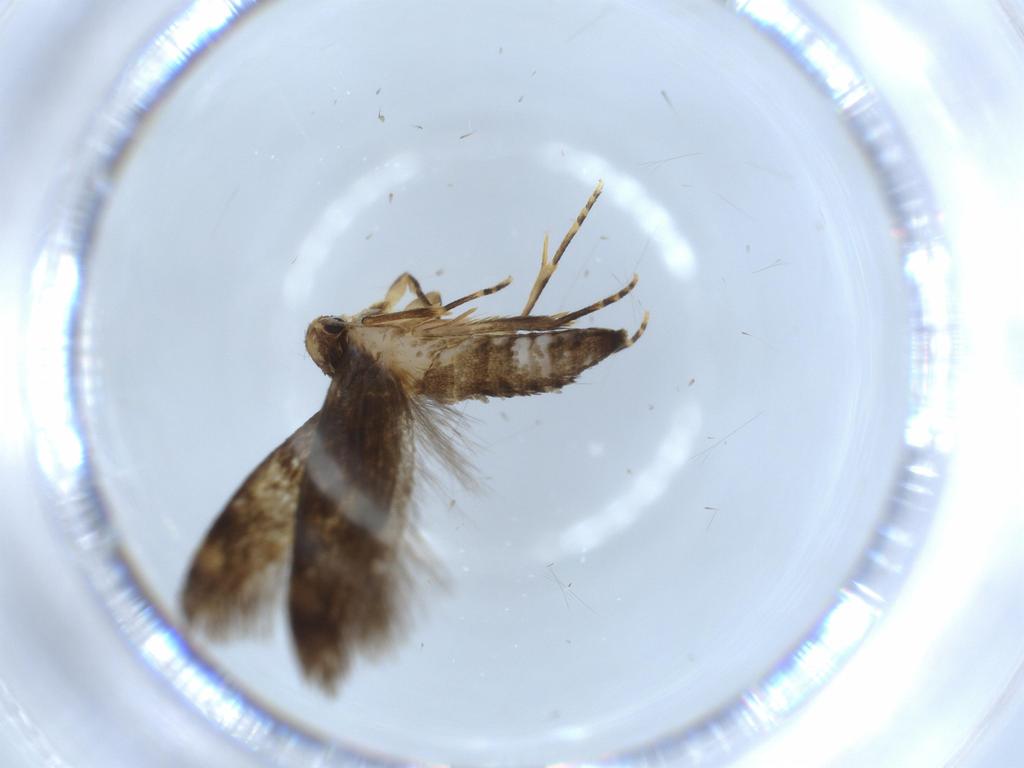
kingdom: Animalia
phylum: Arthropoda
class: Insecta
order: Lepidoptera
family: Tineidae
